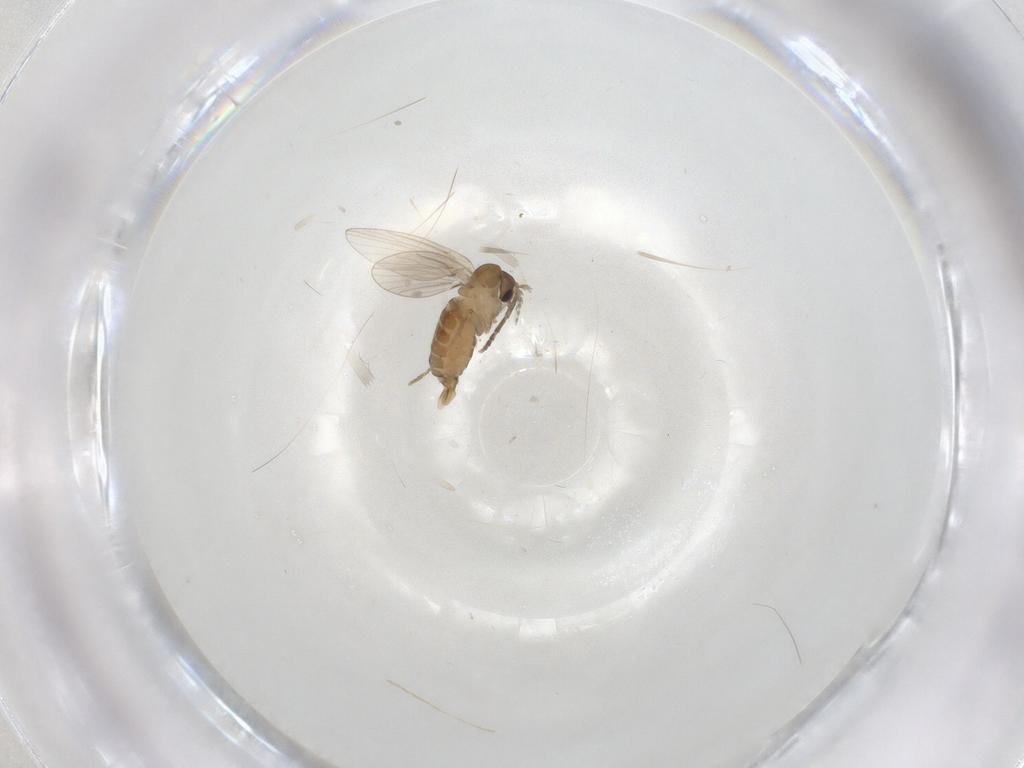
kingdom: Animalia
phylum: Arthropoda
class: Insecta
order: Diptera
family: Cecidomyiidae
